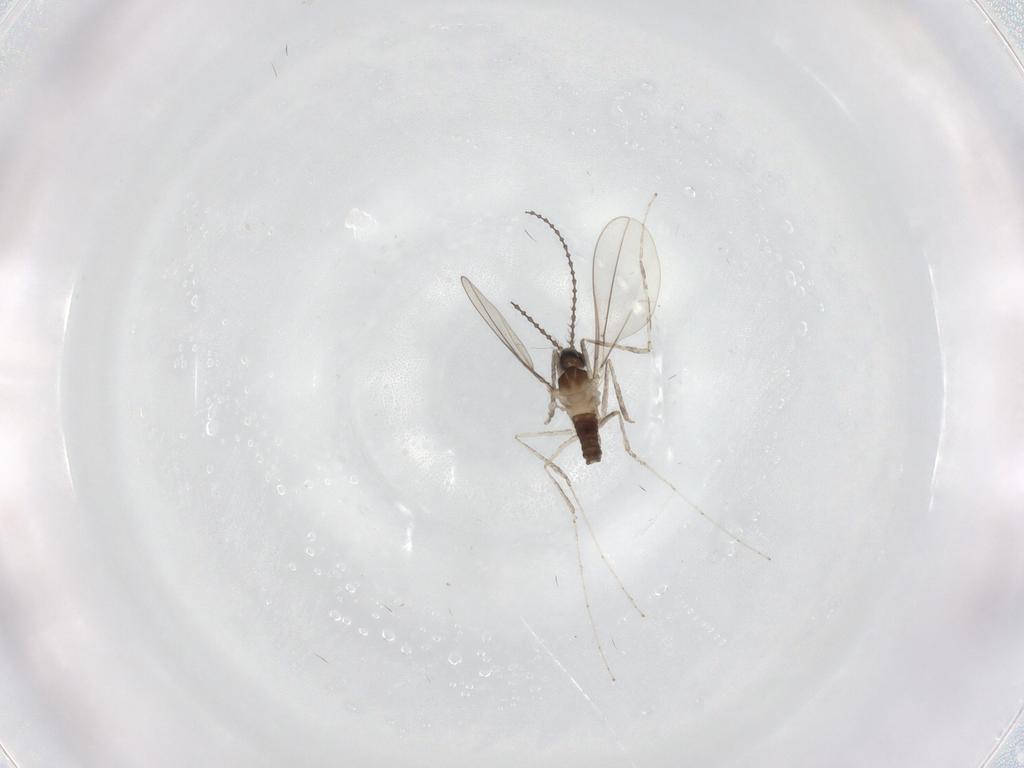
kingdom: Animalia
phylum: Arthropoda
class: Insecta
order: Diptera
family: Cecidomyiidae
